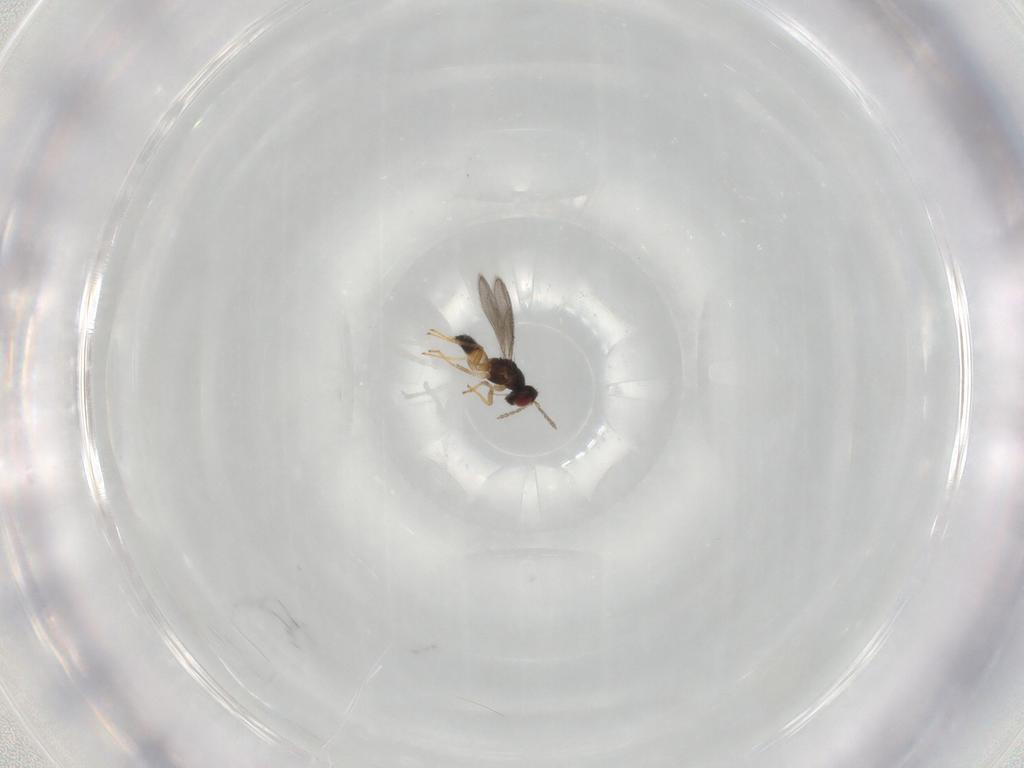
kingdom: Animalia
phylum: Arthropoda
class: Insecta
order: Hymenoptera
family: Eulophidae
